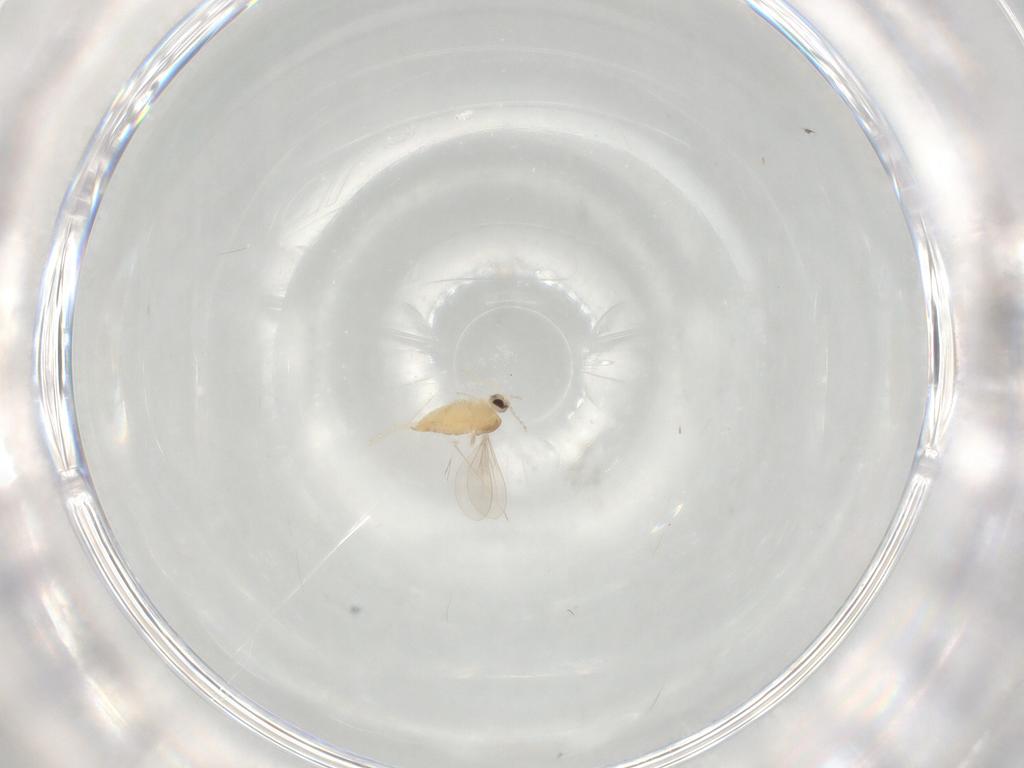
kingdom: Animalia
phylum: Arthropoda
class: Insecta
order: Diptera
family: Cecidomyiidae
